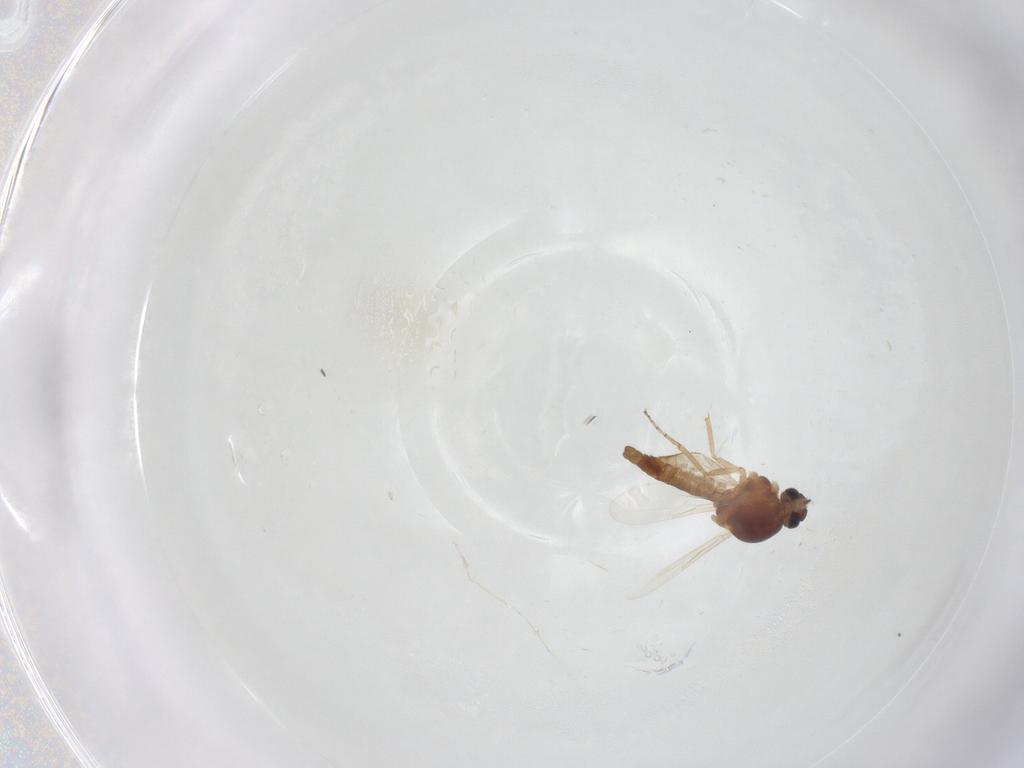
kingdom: Animalia
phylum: Arthropoda
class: Insecta
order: Diptera
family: Ceratopogonidae
